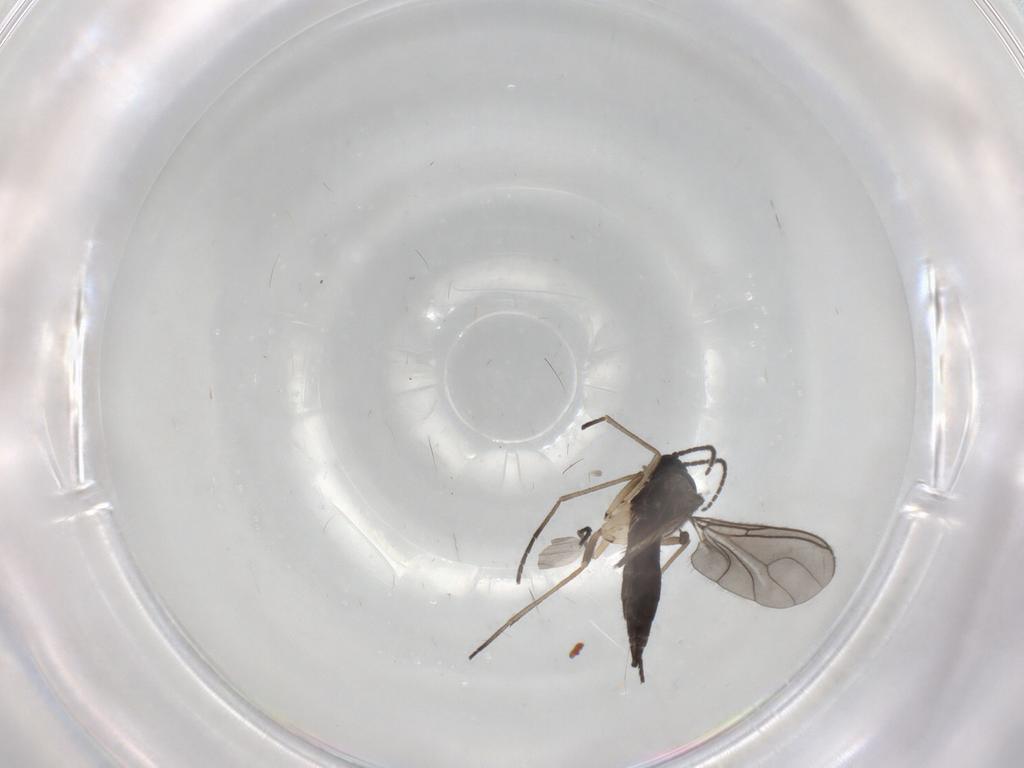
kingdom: Animalia
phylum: Arthropoda
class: Insecta
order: Diptera
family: Sciaridae
